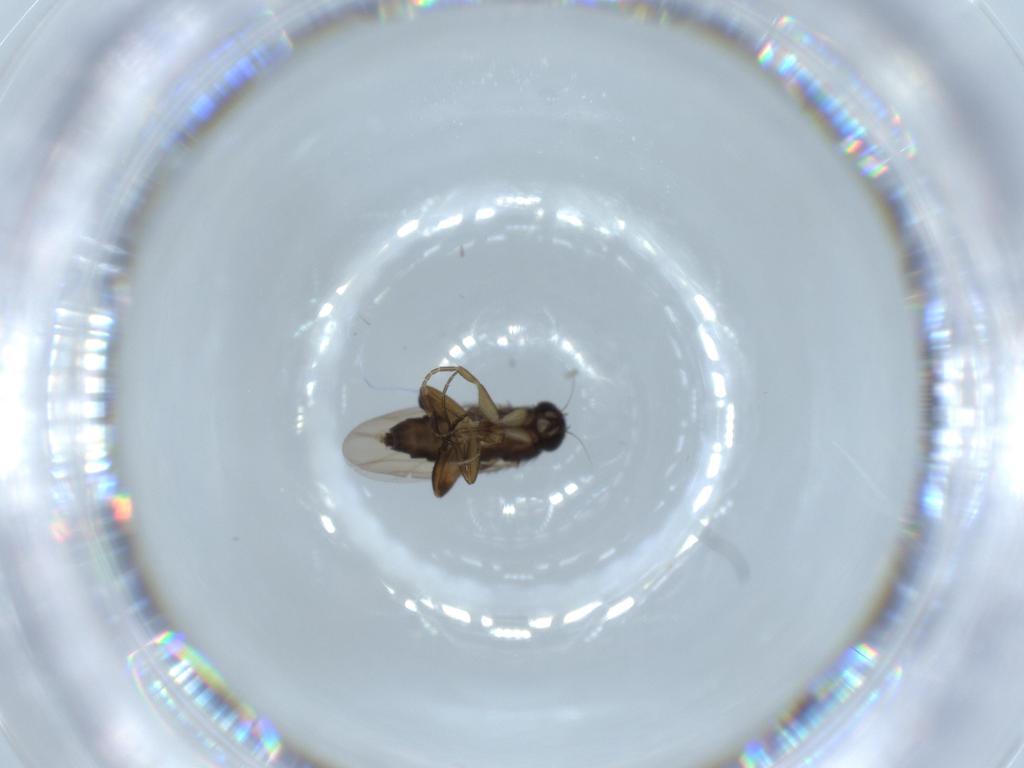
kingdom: Animalia
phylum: Arthropoda
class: Insecta
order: Diptera
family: Phoridae
